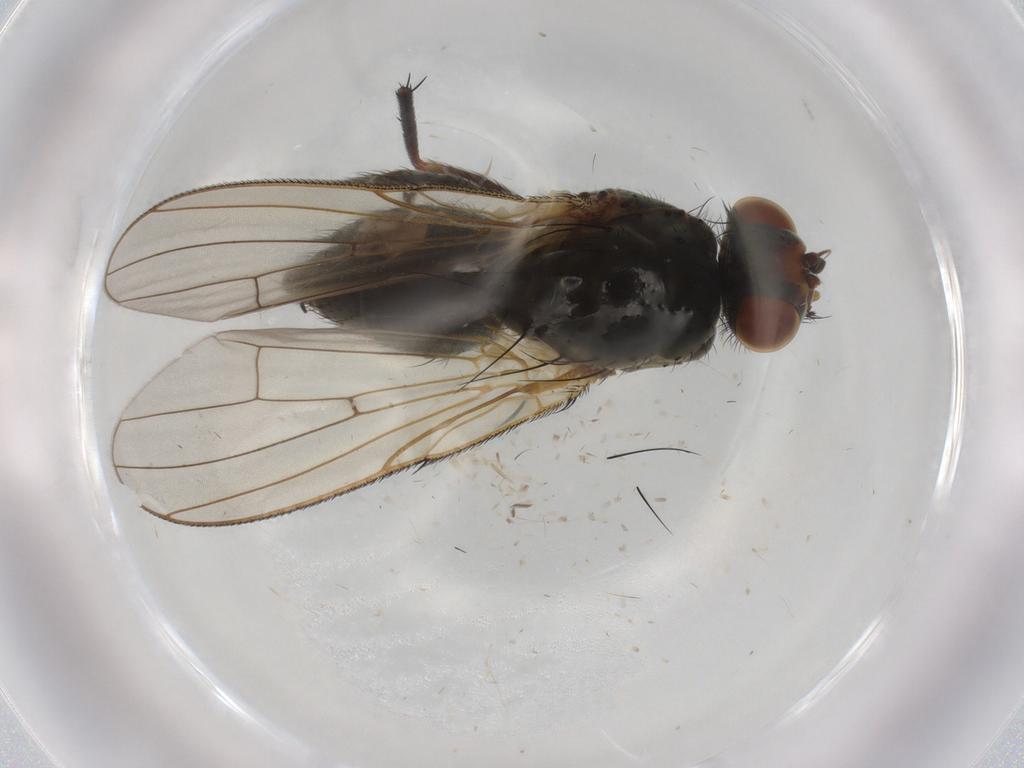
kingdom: Animalia
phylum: Arthropoda
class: Insecta
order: Diptera
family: Anthomyiidae
